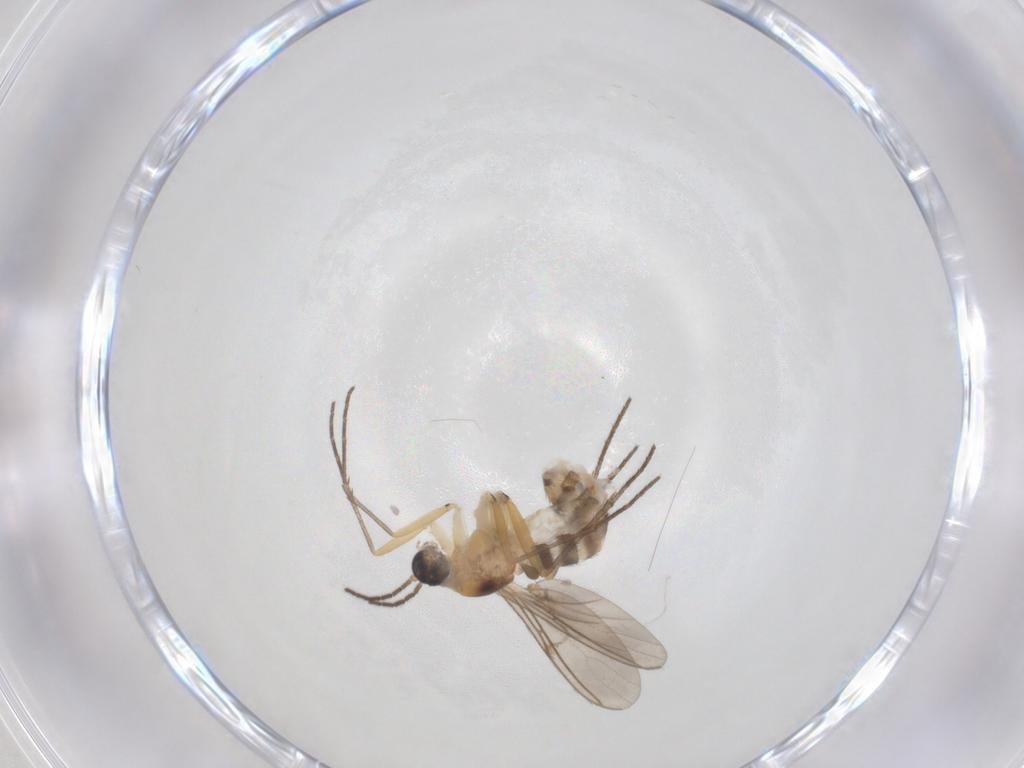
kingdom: Animalia
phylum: Arthropoda
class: Insecta
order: Diptera
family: Sciaridae
